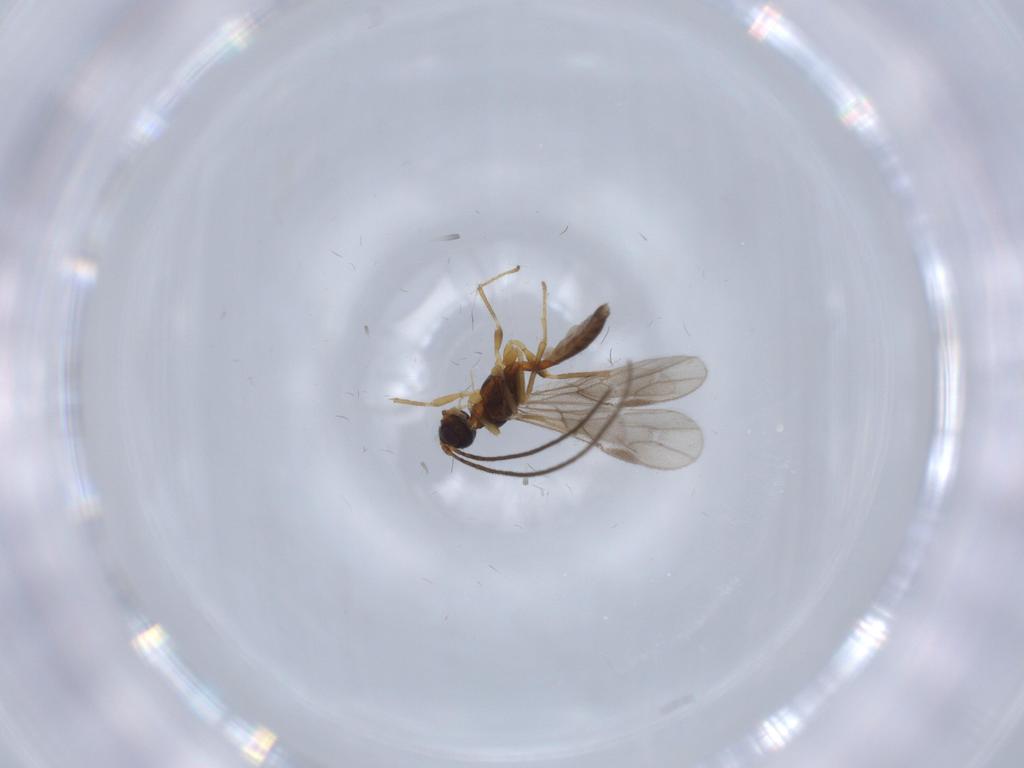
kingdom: Animalia
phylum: Arthropoda
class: Insecta
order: Hymenoptera
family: Braconidae
